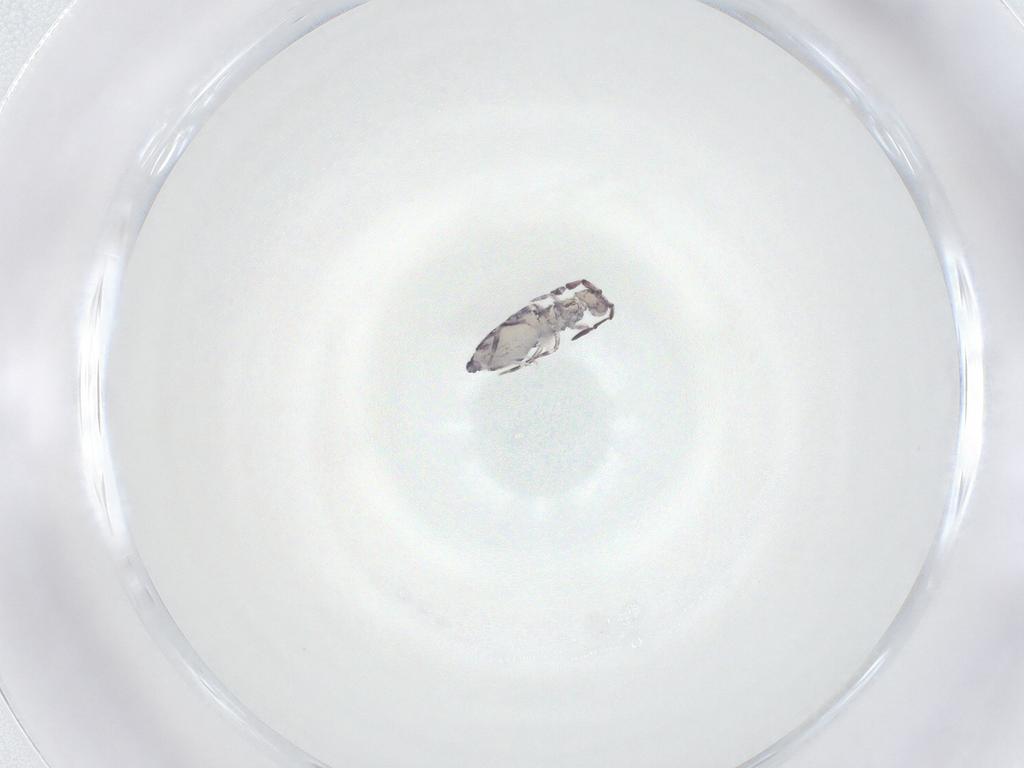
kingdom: Animalia
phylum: Arthropoda
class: Collembola
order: Entomobryomorpha
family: Entomobryidae
